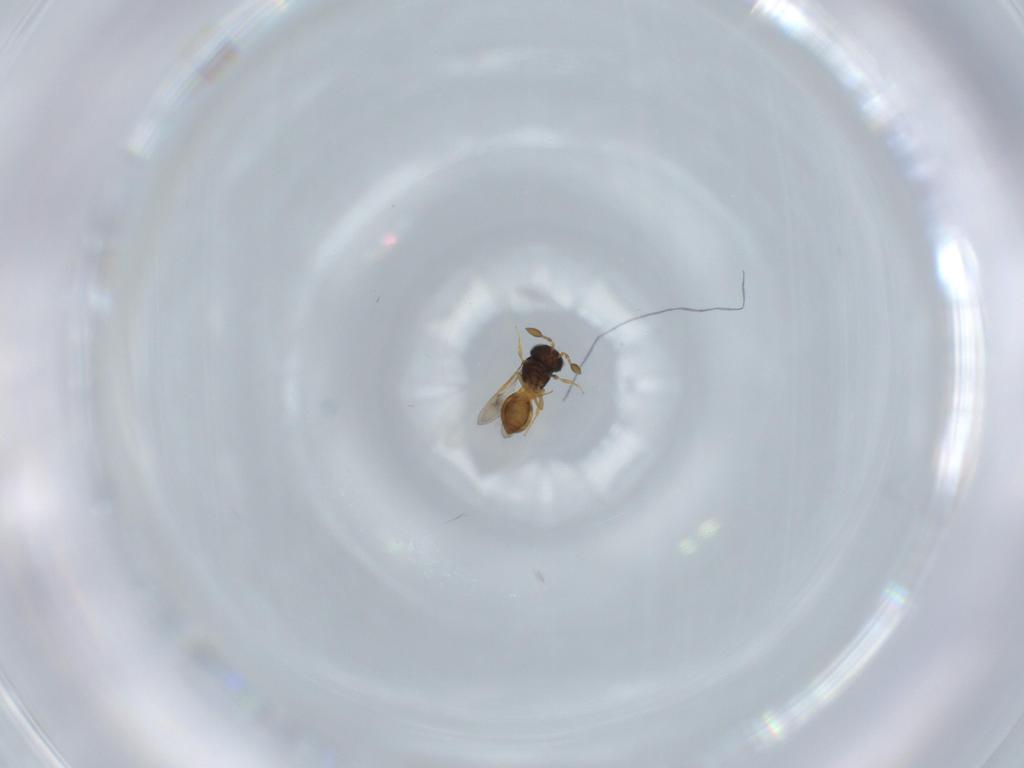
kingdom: Animalia
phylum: Arthropoda
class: Insecta
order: Hymenoptera
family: Scelionidae
